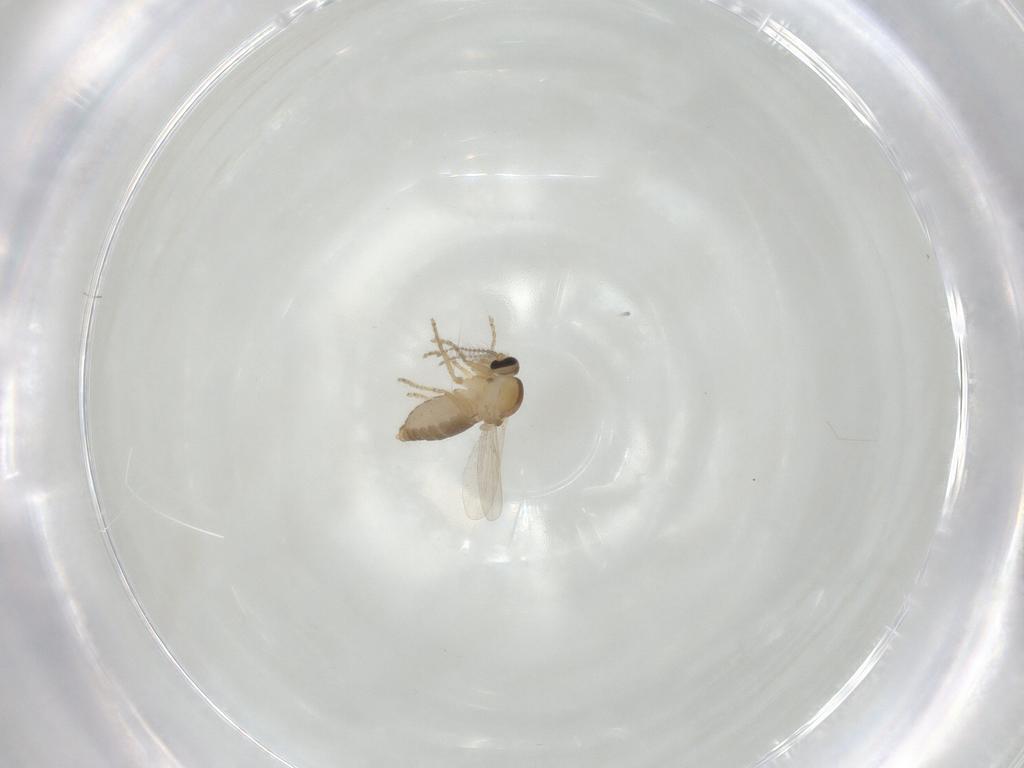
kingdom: Animalia
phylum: Arthropoda
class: Insecta
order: Diptera
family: Ceratopogonidae
